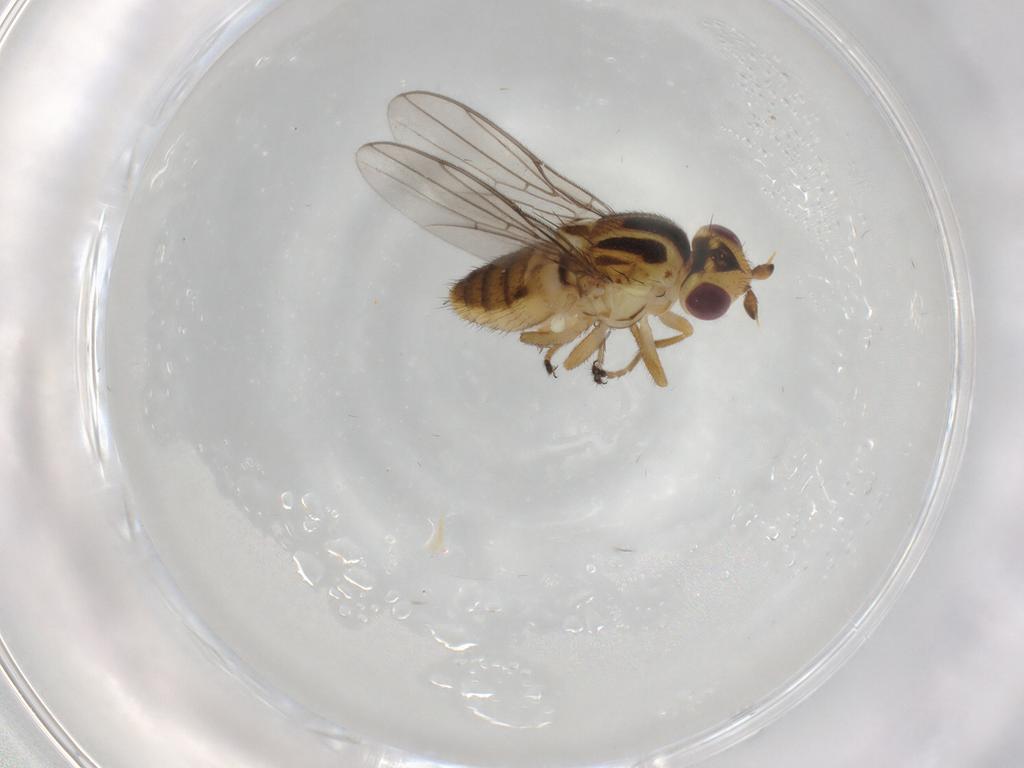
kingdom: Animalia
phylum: Arthropoda
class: Insecta
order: Diptera
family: Chloropidae
